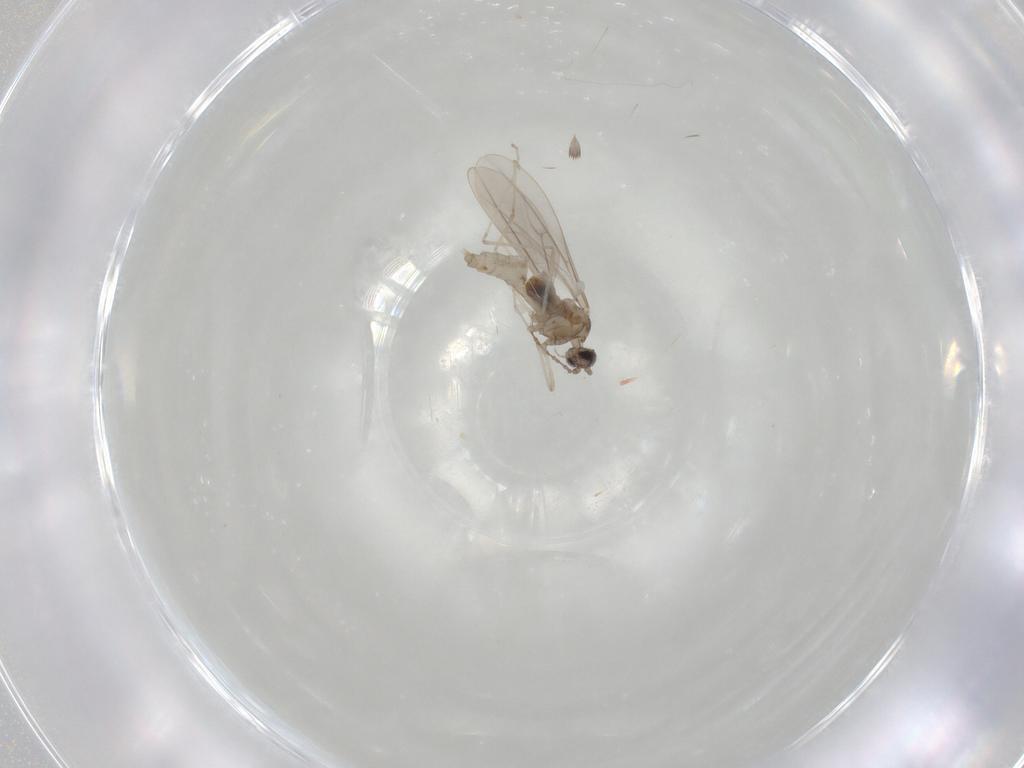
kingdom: Animalia
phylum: Arthropoda
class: Insecta
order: Diptera
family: Cecidomyiidae
